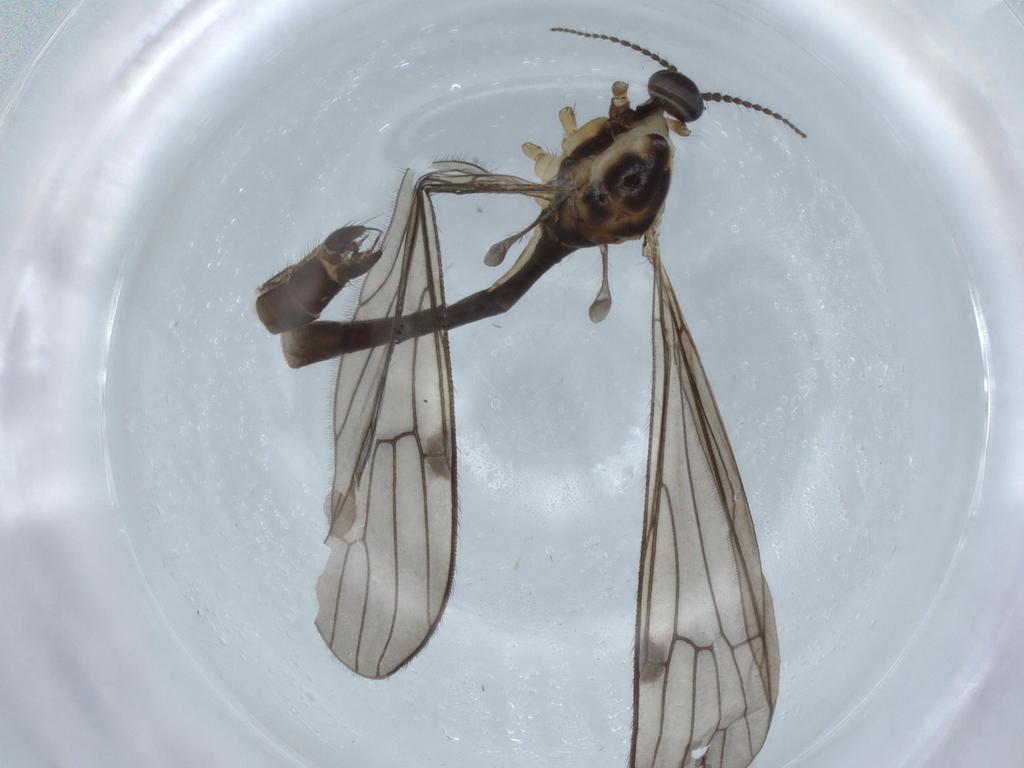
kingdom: Animalia
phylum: Arthropoda
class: Insecta
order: Diptera
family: Limoniidae
